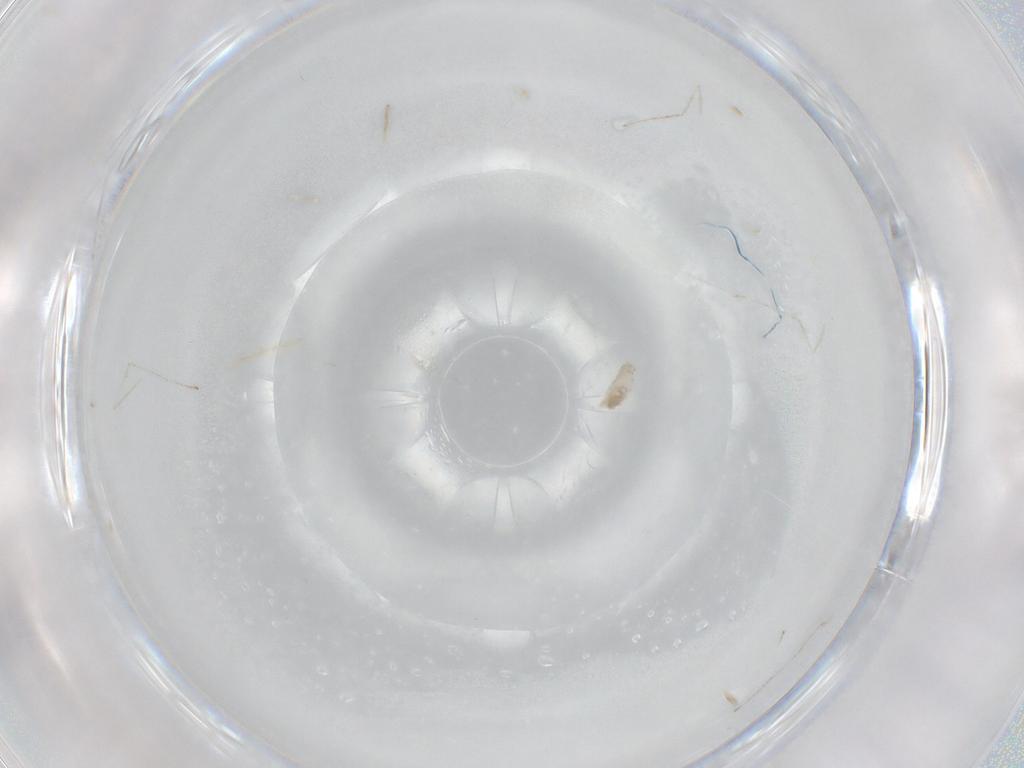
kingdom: Animalia
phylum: Arthropoda
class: Insecta
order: Diptera
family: Cecidomyiidae
